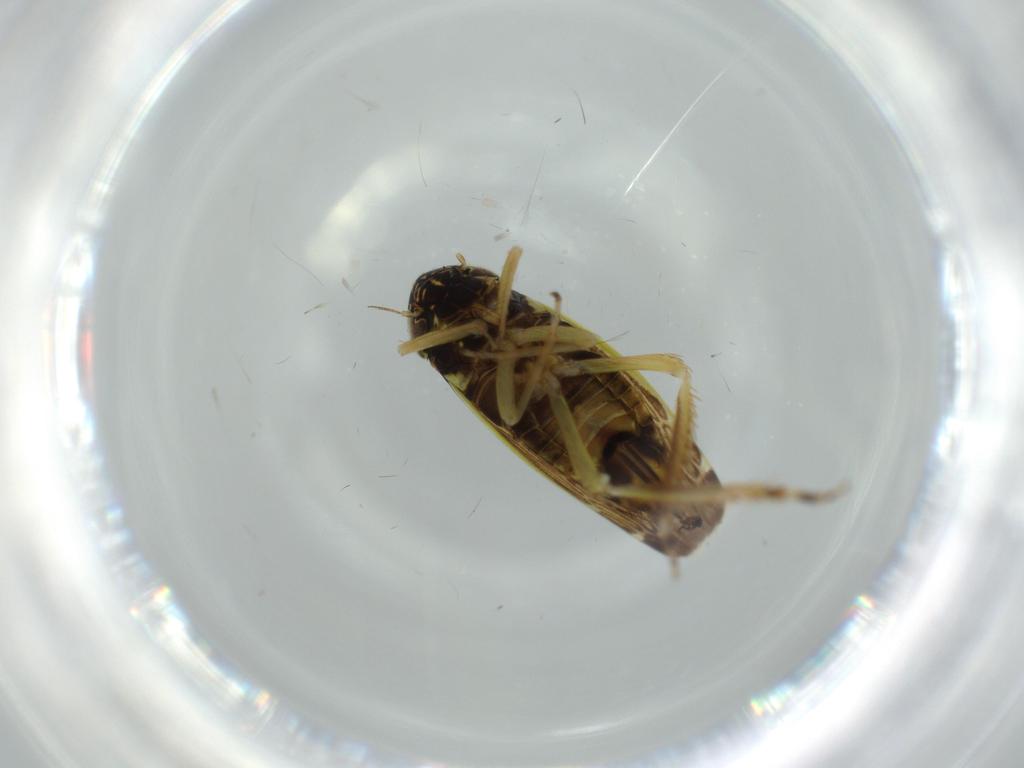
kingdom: Animalia
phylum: Arthropoda
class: Insecta
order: Hemiptera
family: Cicadellidae
